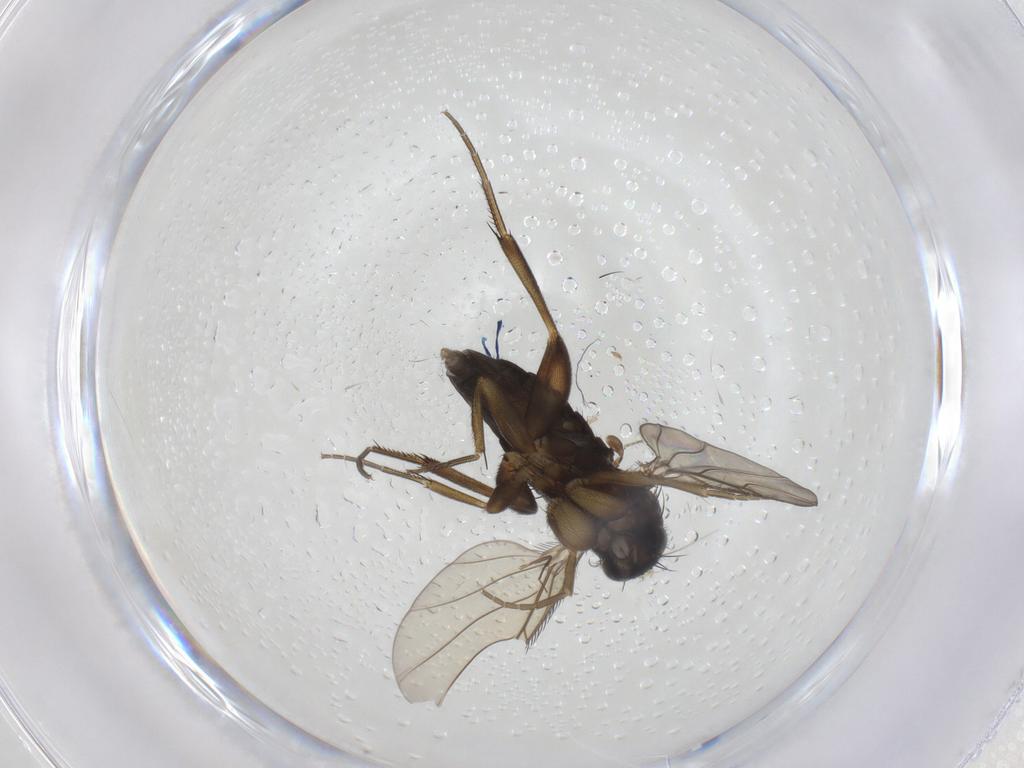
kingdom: Animalia
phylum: Arthropoda
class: Insecta
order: Diptera
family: Phoridae
